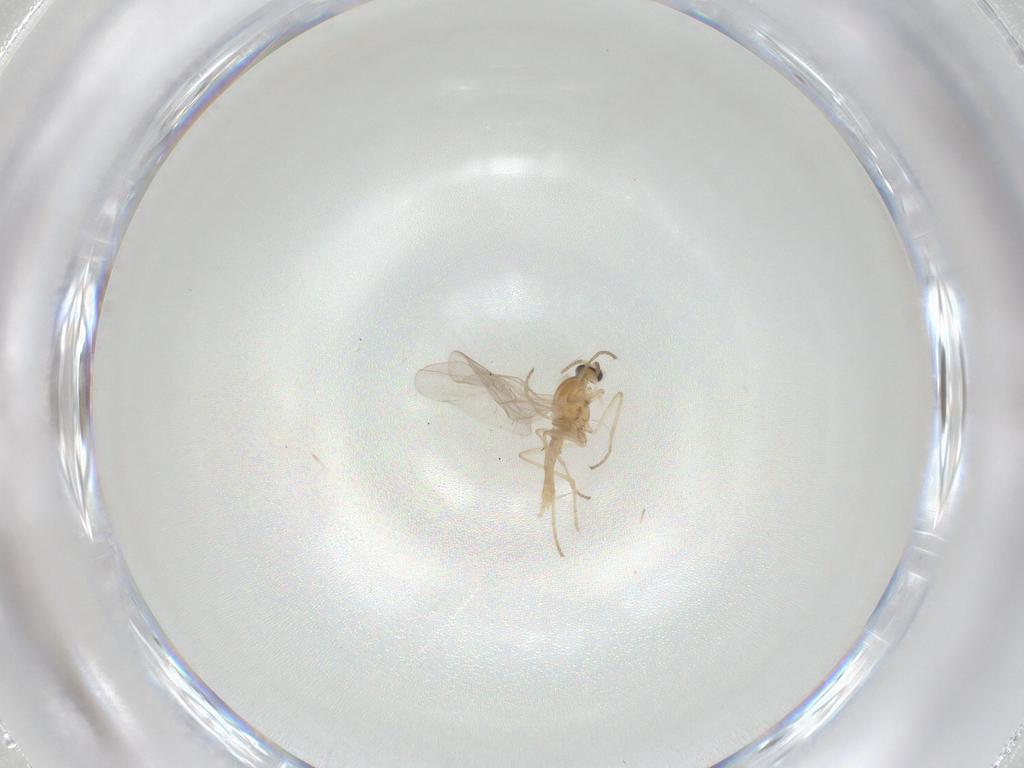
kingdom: Animalia
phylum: Arthropoda
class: Insecta
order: Diptera
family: Cecidomyiidae
